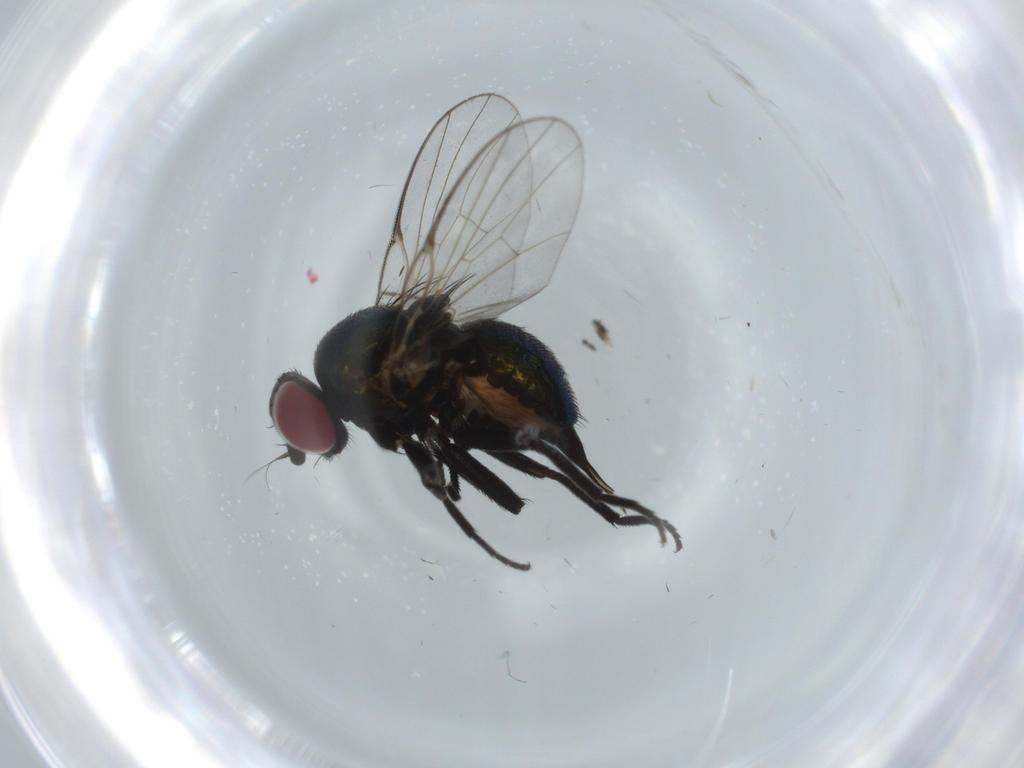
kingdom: Animalia
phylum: Arthropoda
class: Insecta
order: Diptera
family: Agromyzidae
